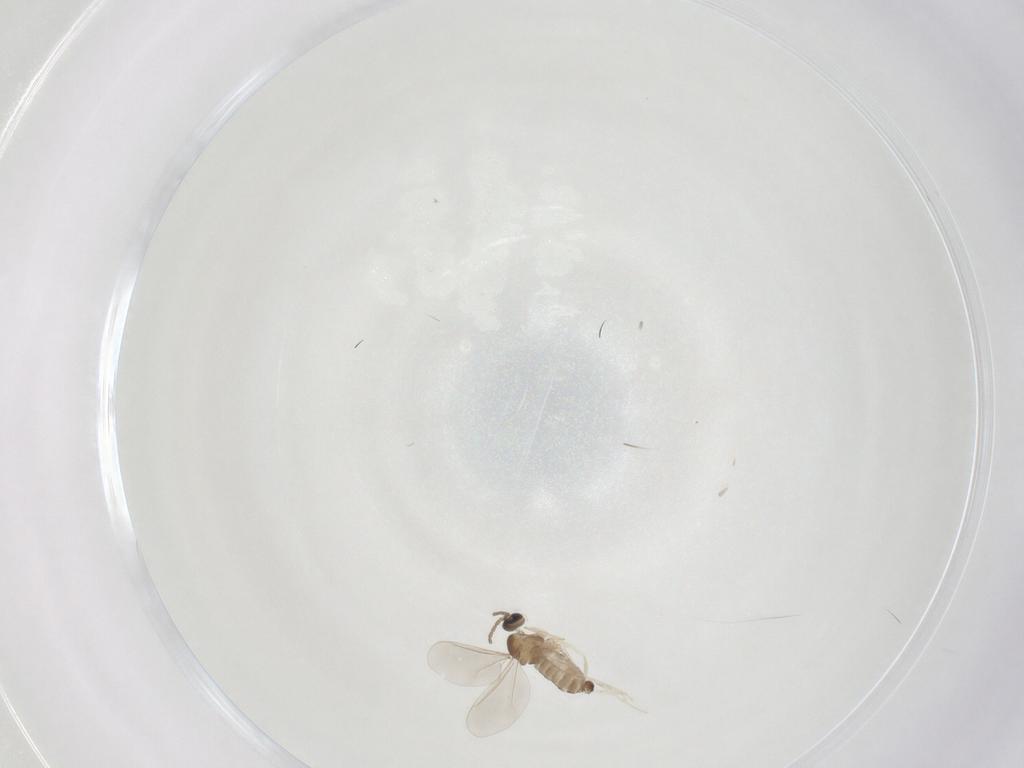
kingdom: Animalia
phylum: Arthropoda
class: Insecta
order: Diptera
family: Cecidomyiidae
